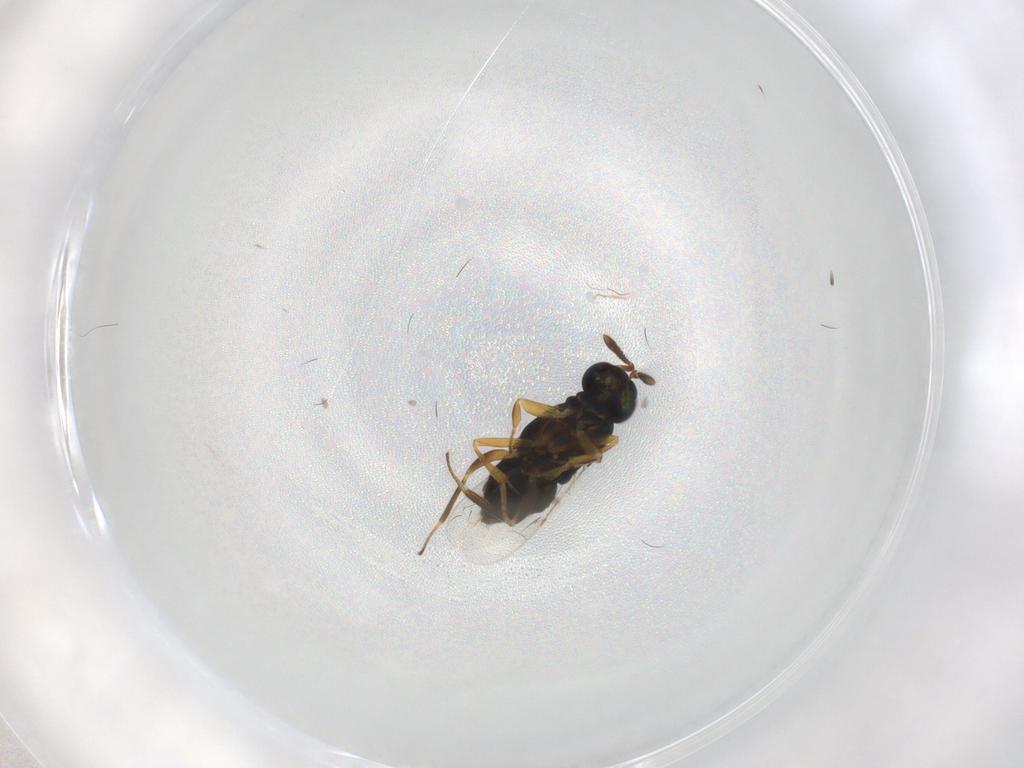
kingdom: Animalia
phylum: Arthropoda
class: Insecta
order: Hymenoptera
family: Encyrtidae
